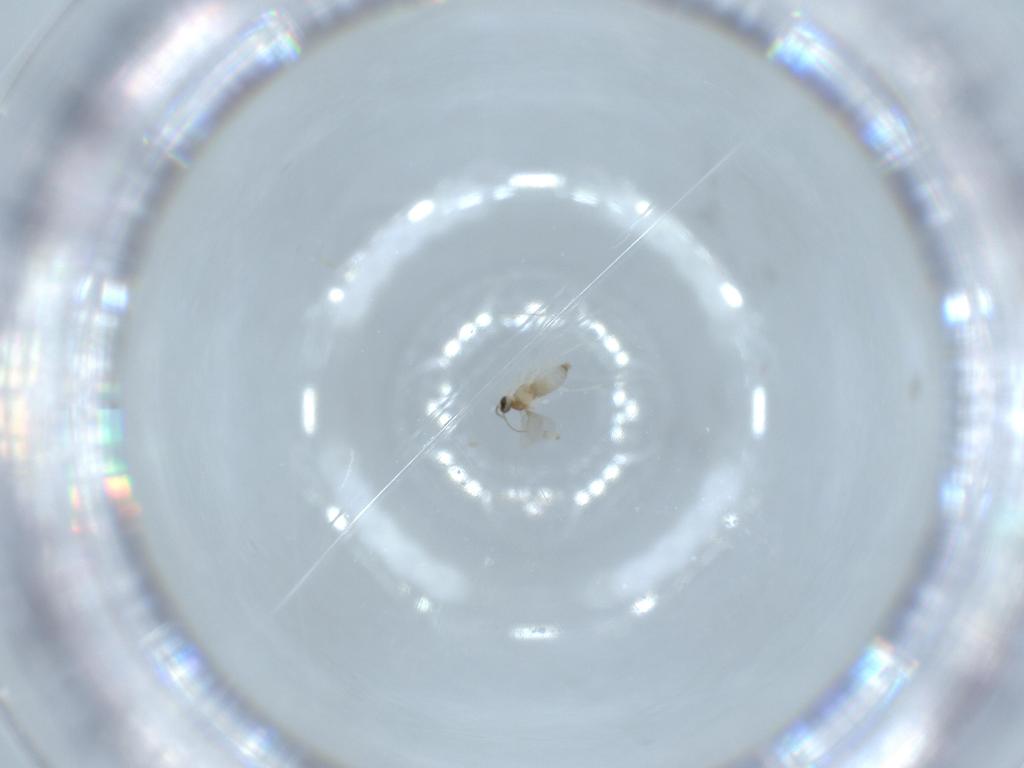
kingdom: Animalia
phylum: Arthropoda
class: Insecta
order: Diptera
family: Cecidomyiidae
